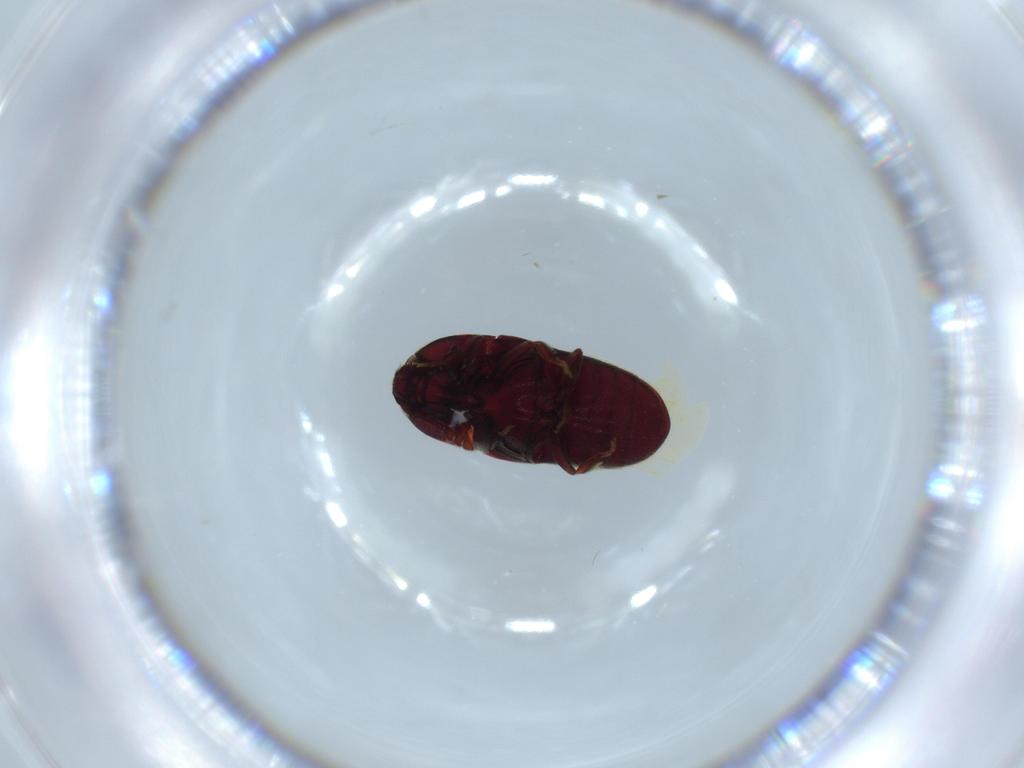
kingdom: Animalia
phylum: Arthropoda
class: Insecta
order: Coleoptera
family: Throscidae
